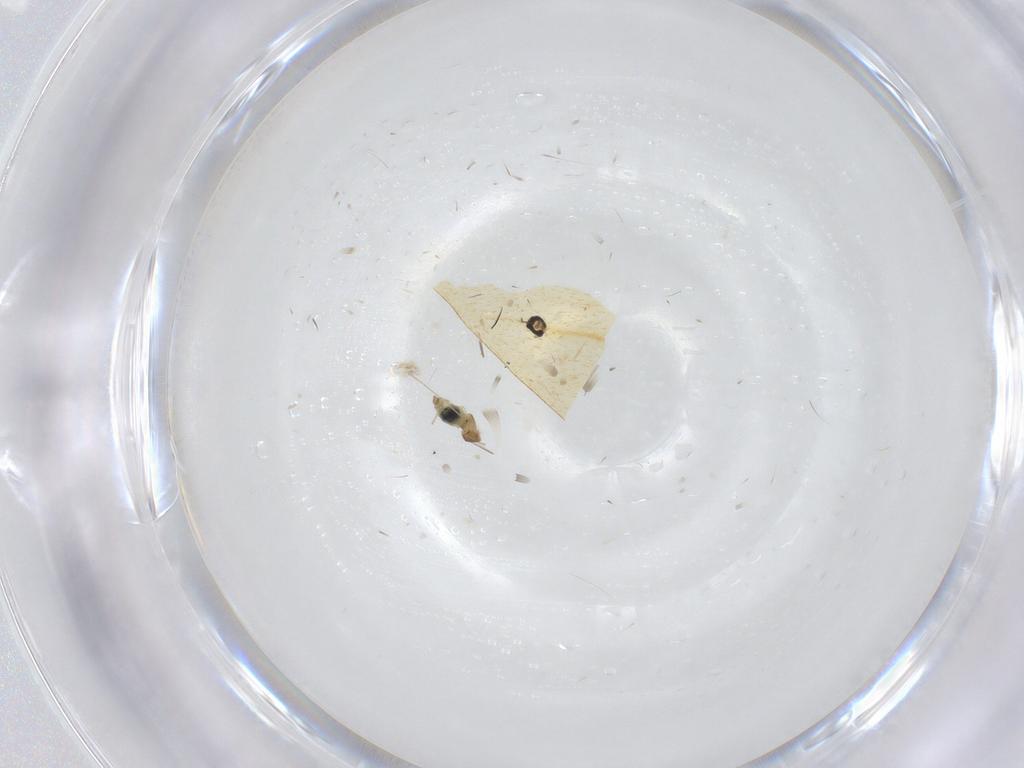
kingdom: Animalia
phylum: Arthropoda
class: Insecta
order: Diptera
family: Cecidomyiidae
